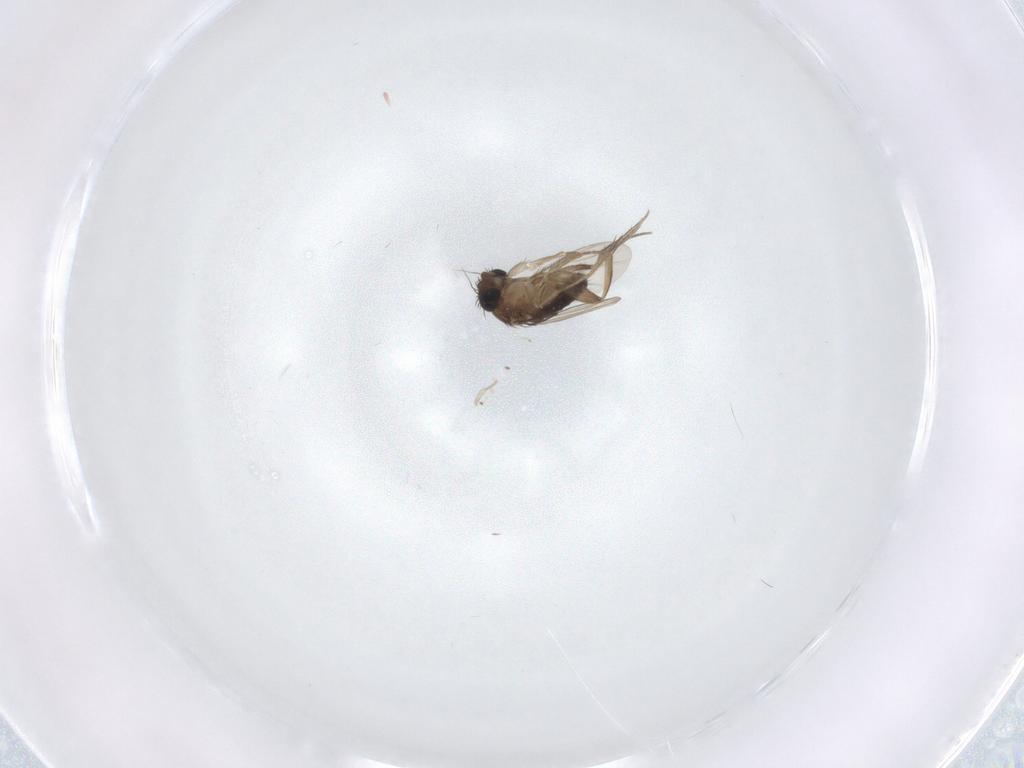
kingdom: Animalia
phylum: Arthropoda
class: Insecta
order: Diptera
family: Phoridae
